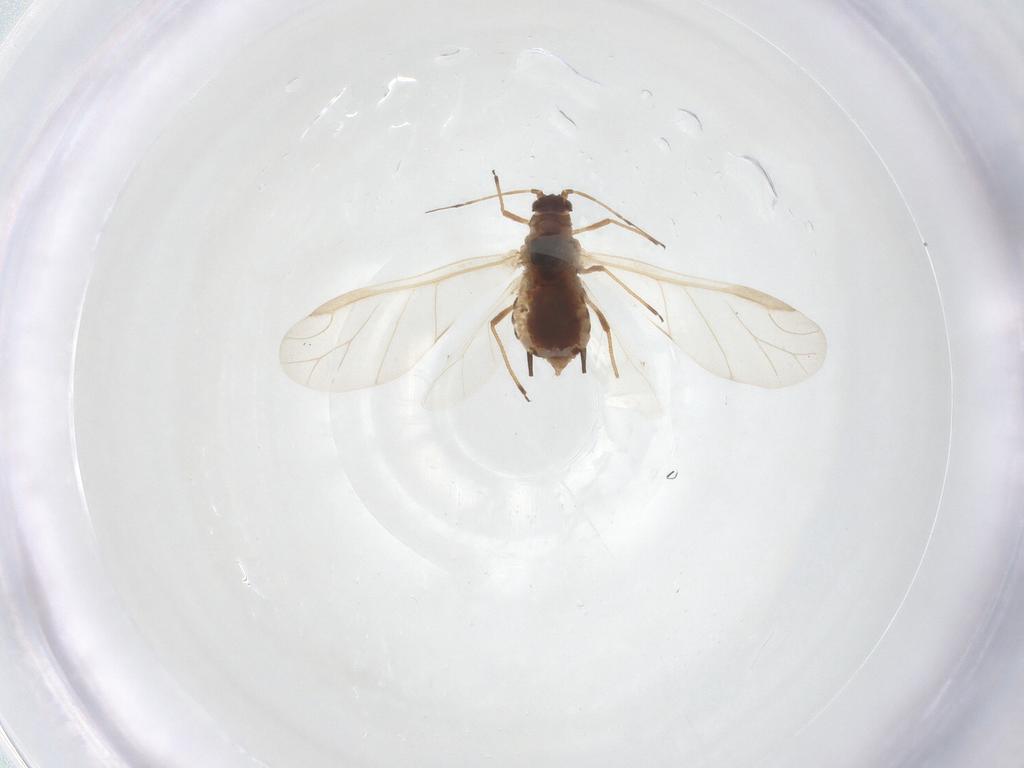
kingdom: Animalia
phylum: Arthropoda
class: Insecta
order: Hemiptera
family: Aphididae
